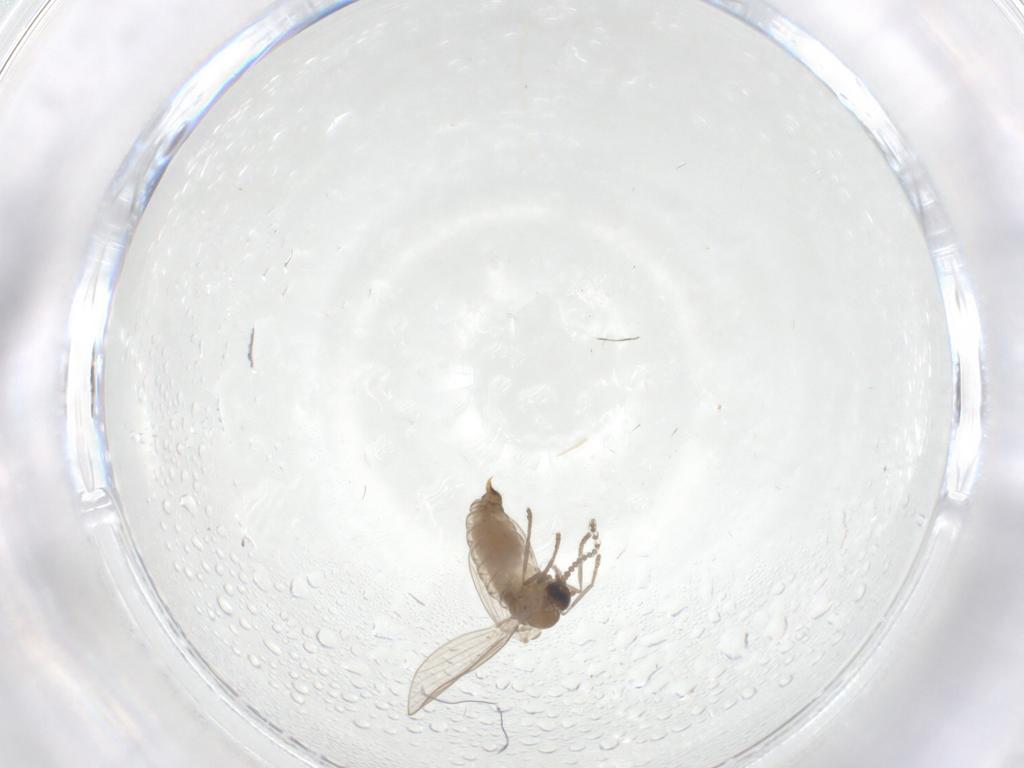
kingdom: Animalia
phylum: Arthropoda
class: Insecta
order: Diptera
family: Psychodidae
